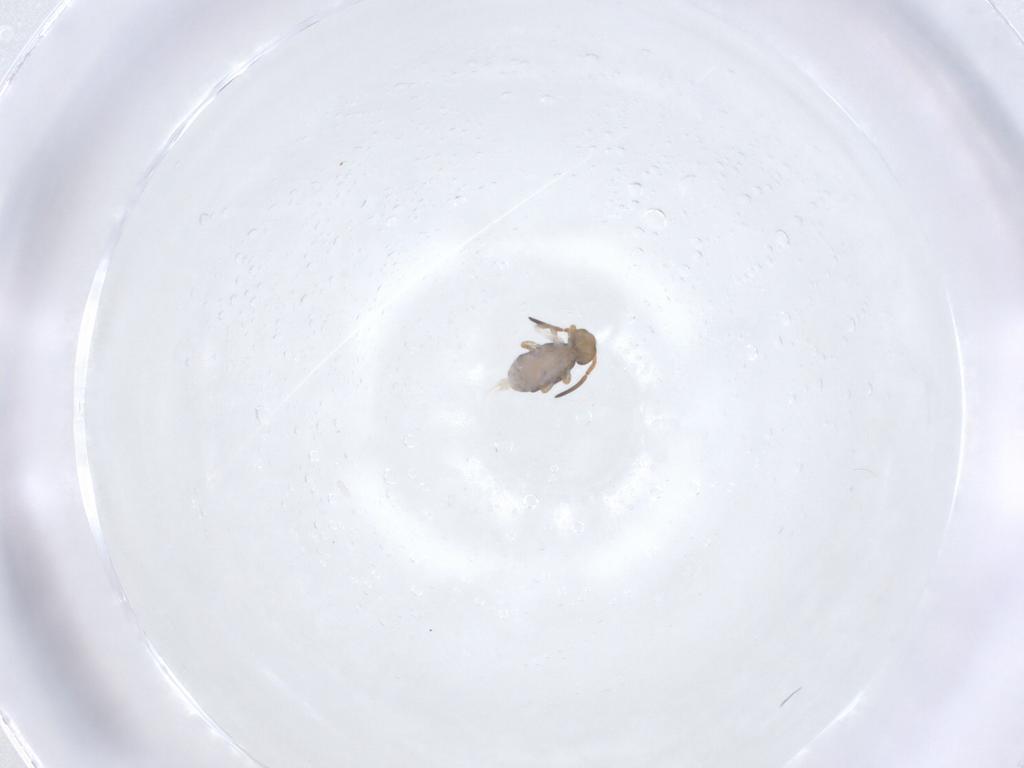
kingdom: Animalia
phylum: Arthropoda
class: Collembola
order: Symphypleona
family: Katiannidae
